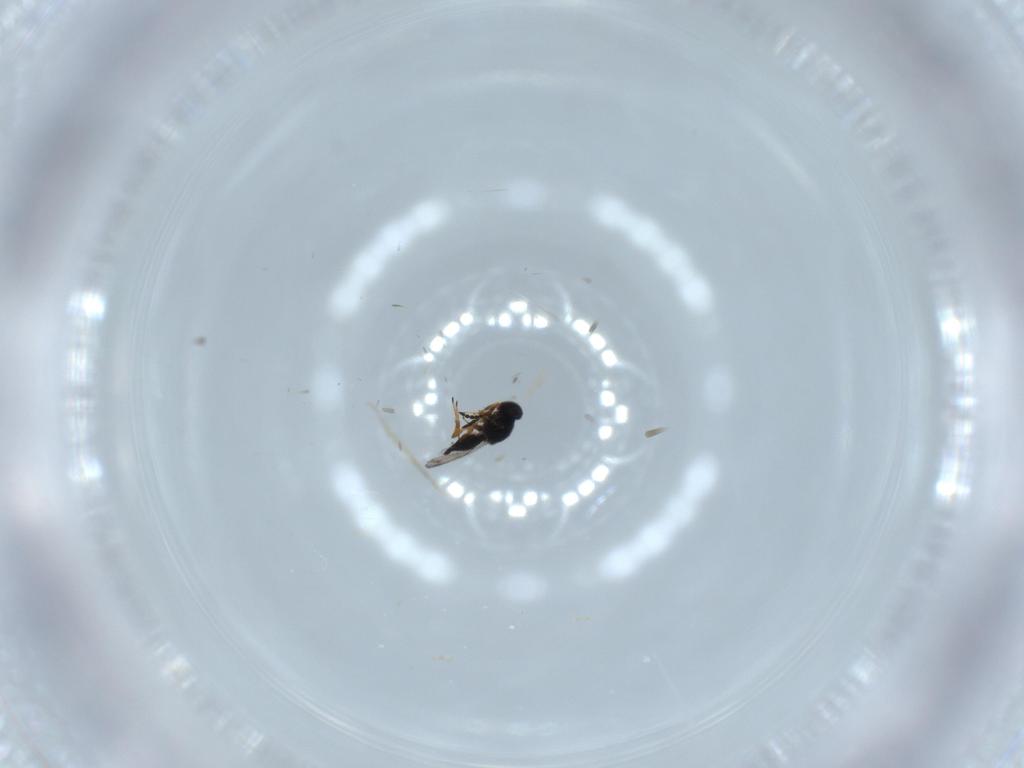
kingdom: Animalia
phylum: Arthropoda
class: Insecta
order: Hymenoptera
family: Platygastridae
